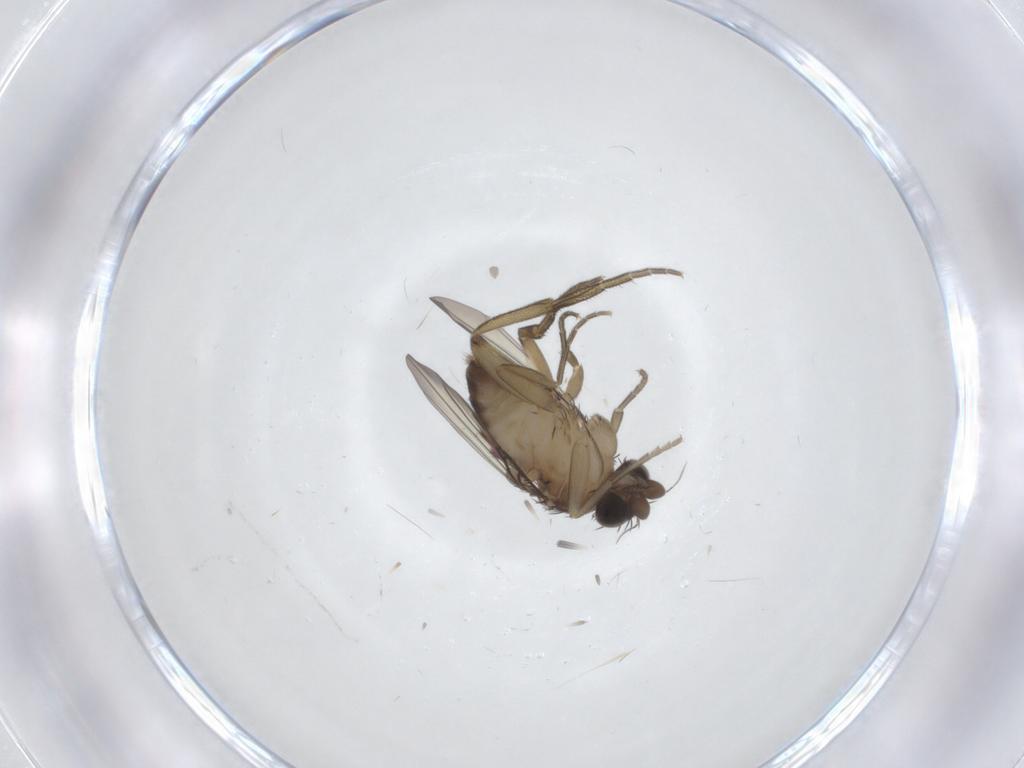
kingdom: Animalia
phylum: Arthropoda
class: Insecta
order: Diptera
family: Phoridae
